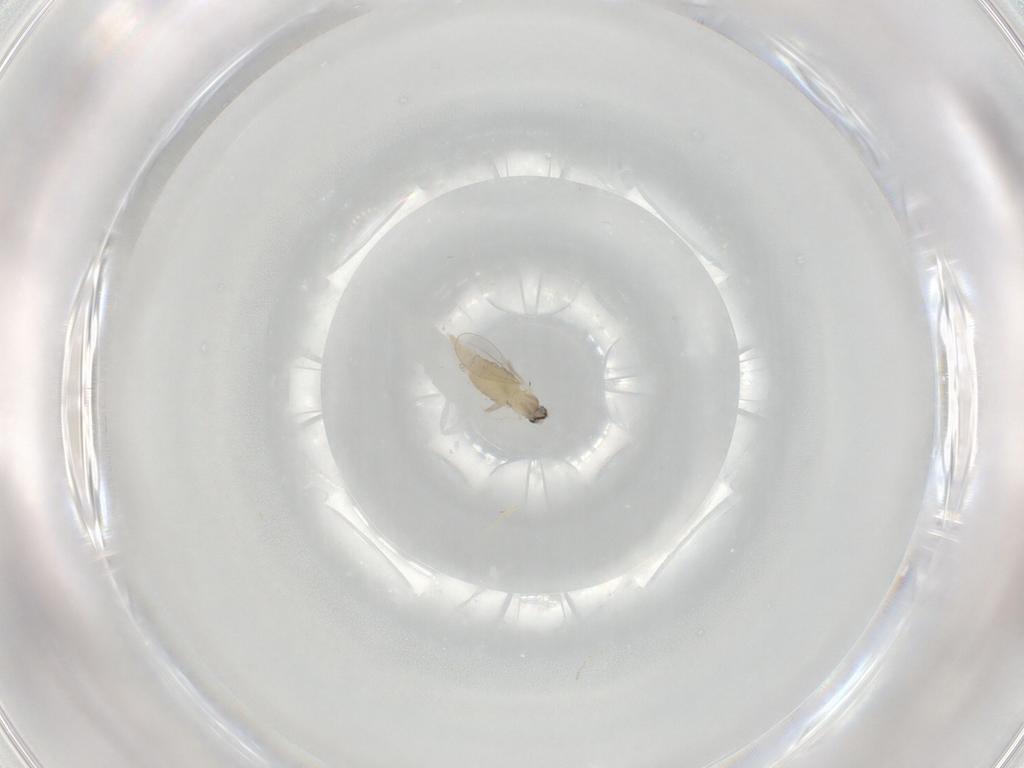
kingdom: Animalia
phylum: Arthropoda
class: Insecta
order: Diptera
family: Cecidomyiidae
